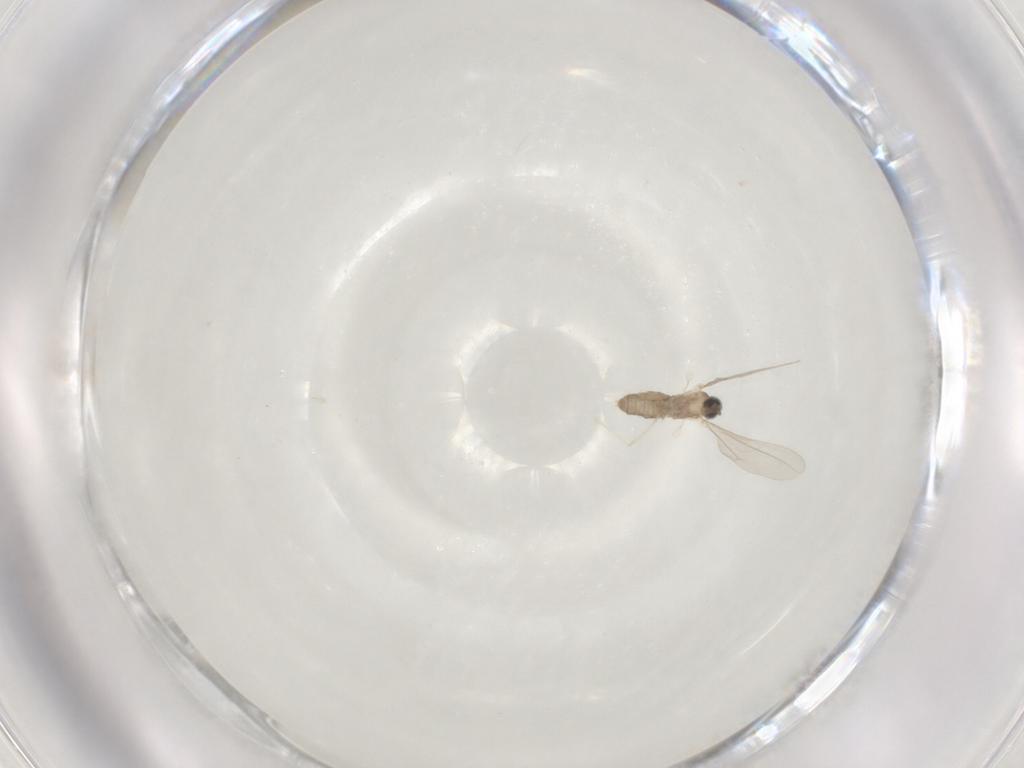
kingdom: Animalia
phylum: Arthropoda
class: Insecta
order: Diptera
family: Cecidomyiidae
